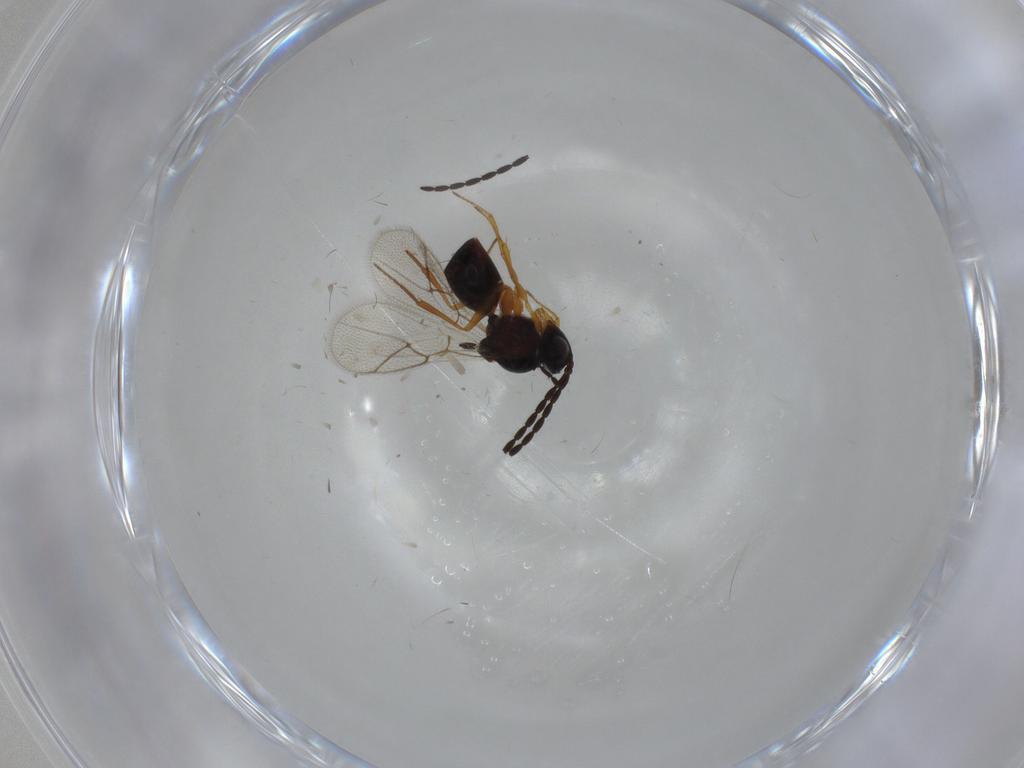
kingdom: Animalia
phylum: Arthropoda
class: Insecta
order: Hymenoptera
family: Figitidae
